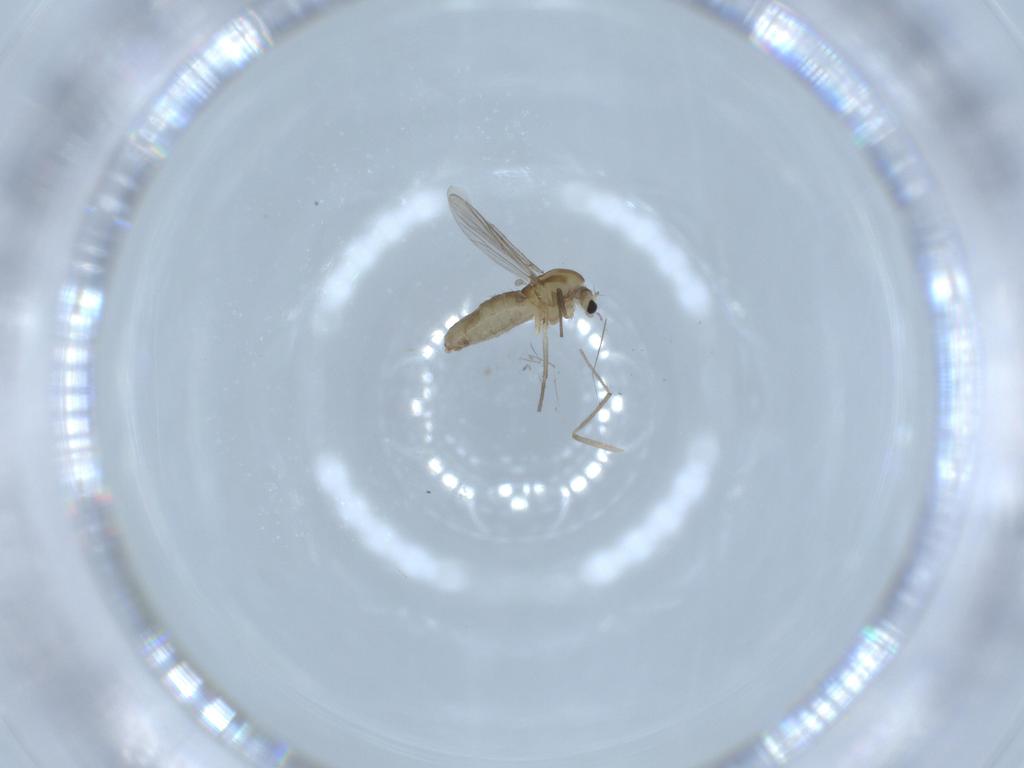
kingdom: Animalia
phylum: Arthropoda
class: Insecta
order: Diptera
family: Chironomidae
